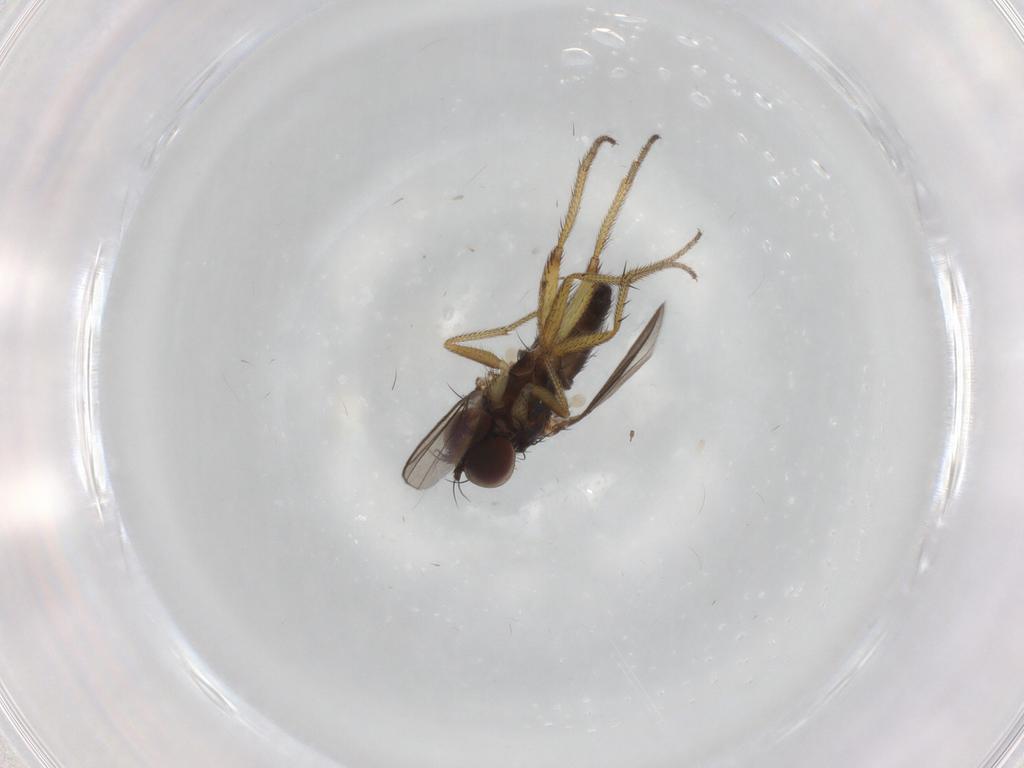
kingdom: Animalia
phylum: Arthropoda
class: Insecta
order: Diptera
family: Dolichopodidae
